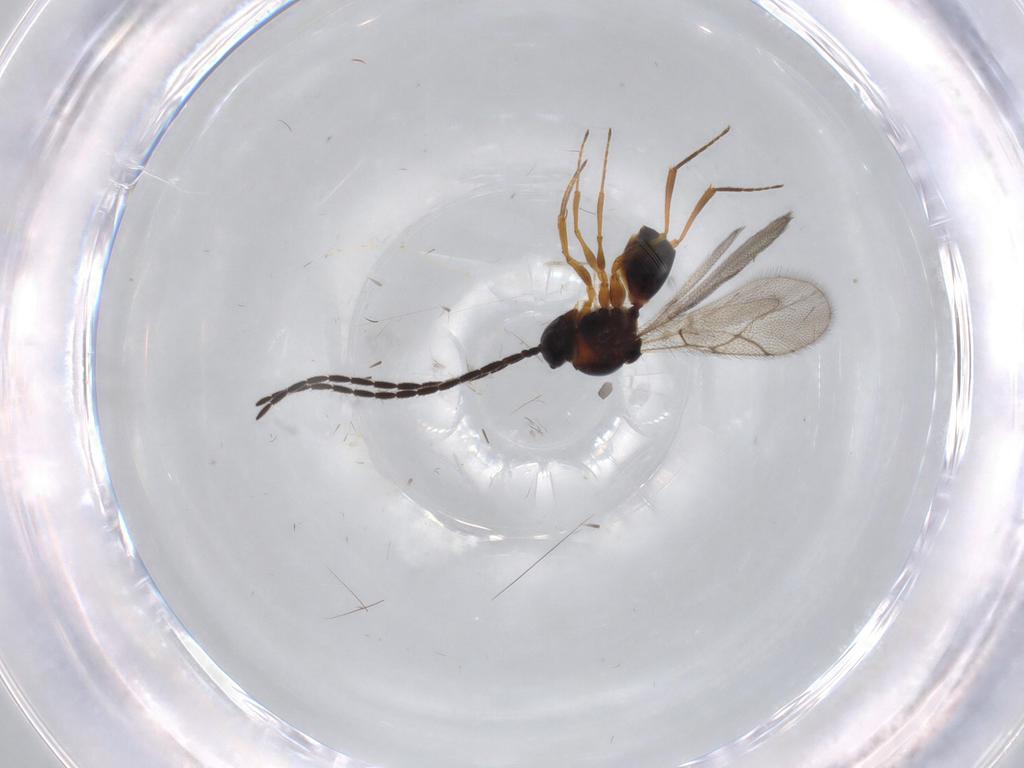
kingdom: Animalia
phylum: Arthropoda
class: Insecta
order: Hymenoptera
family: Figitidae
